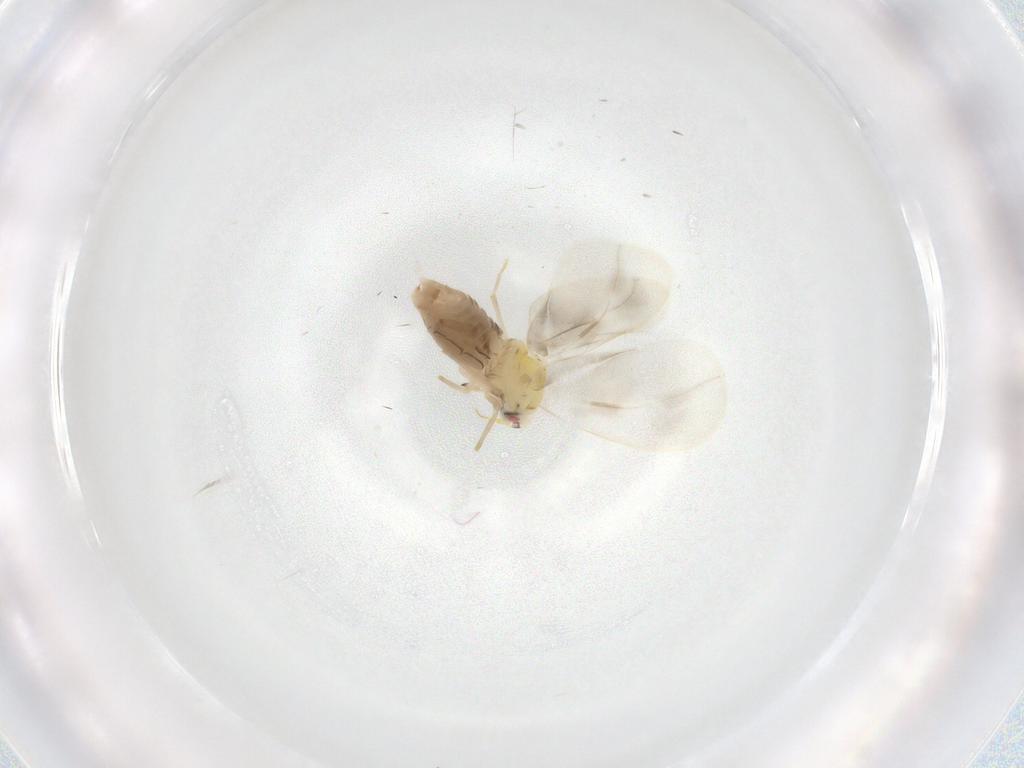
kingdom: Animalia
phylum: Arthropoda
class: Insecta
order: Hemiptera
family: Aleyrodidae
